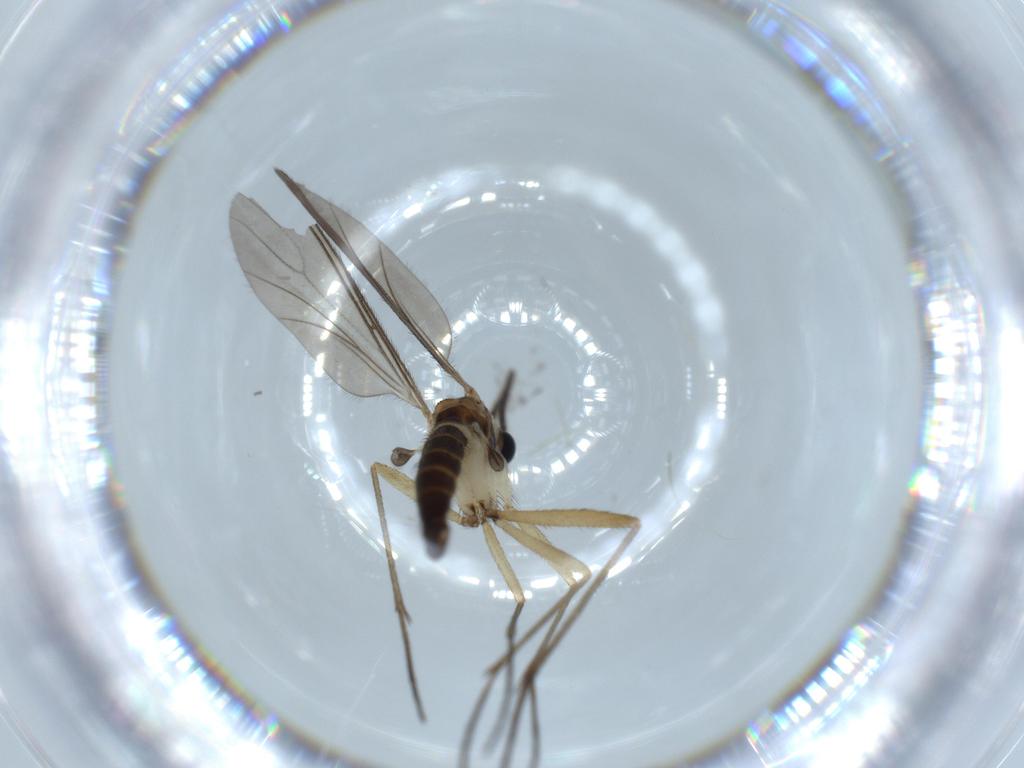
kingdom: Animalia
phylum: Arthropoda
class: Insecta
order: Diptera
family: Sciaridae
